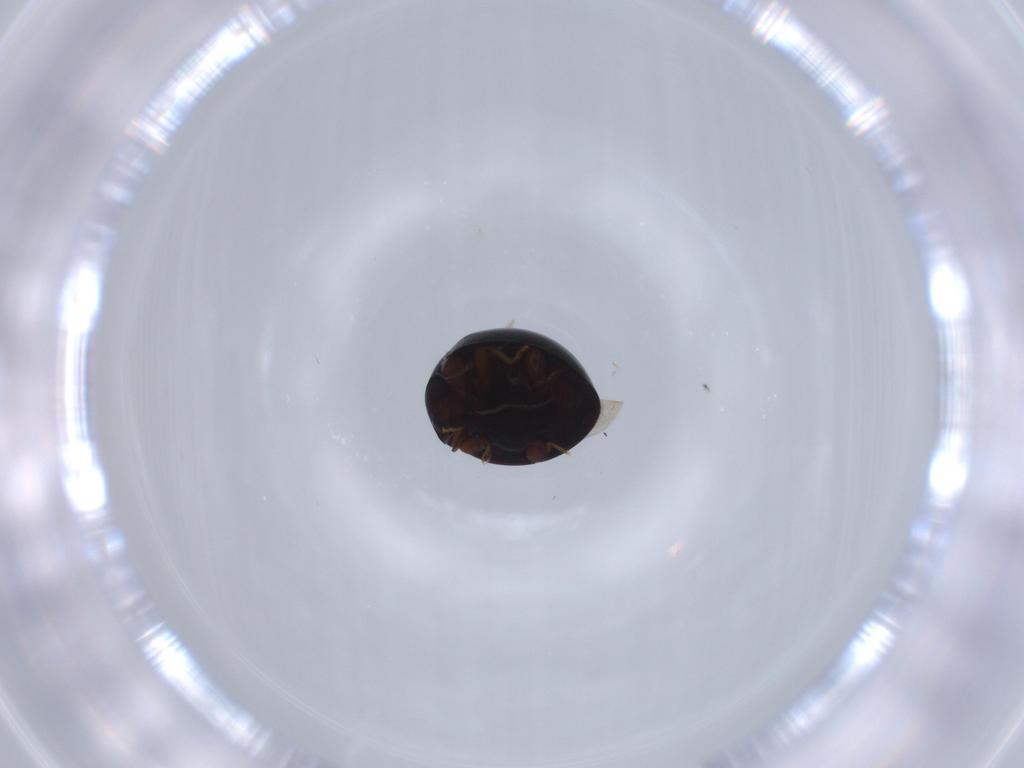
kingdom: Animalia
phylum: Arthropoda
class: Insecta
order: Coleoptera
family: Coccinellidae
